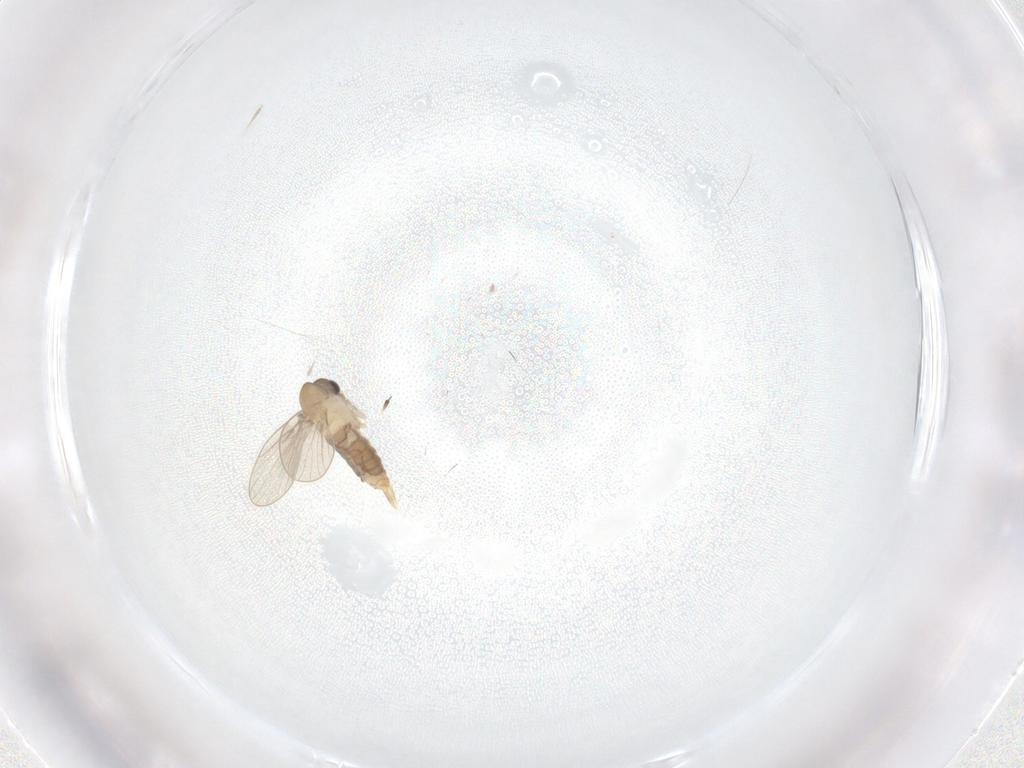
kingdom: Animalia
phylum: Arthropoda
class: Insecta
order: Diptera
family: Psychodidae
